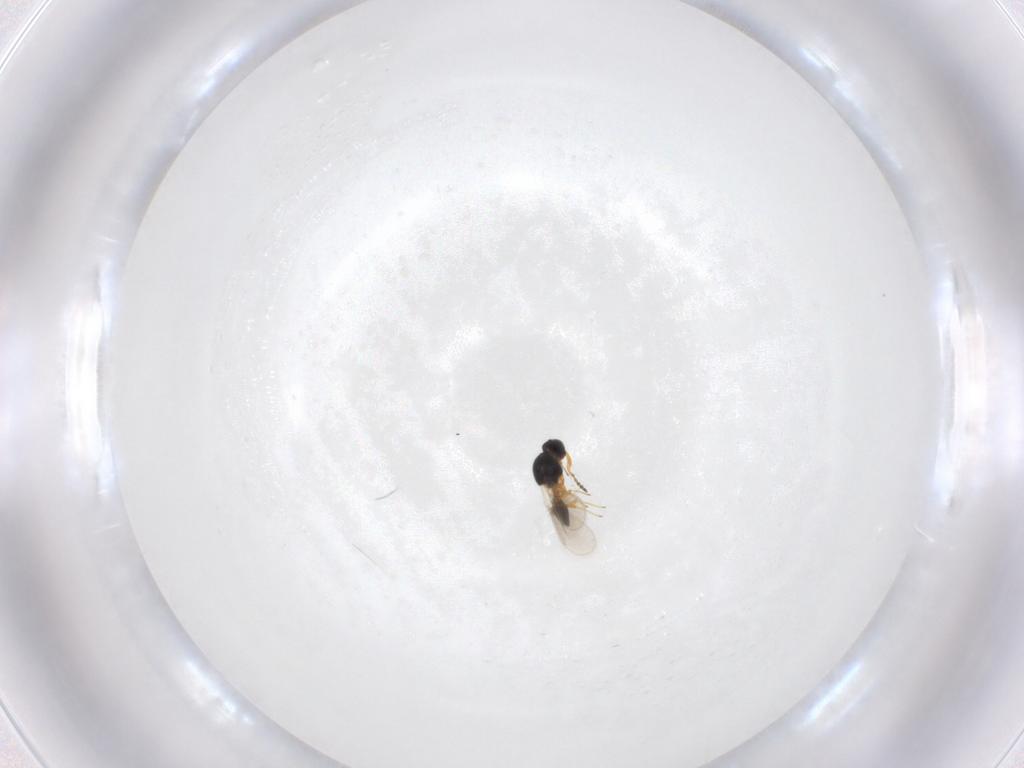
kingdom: Animalia
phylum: Arthropoda
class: Insecta
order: Hymenoptera
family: Platygastridae
